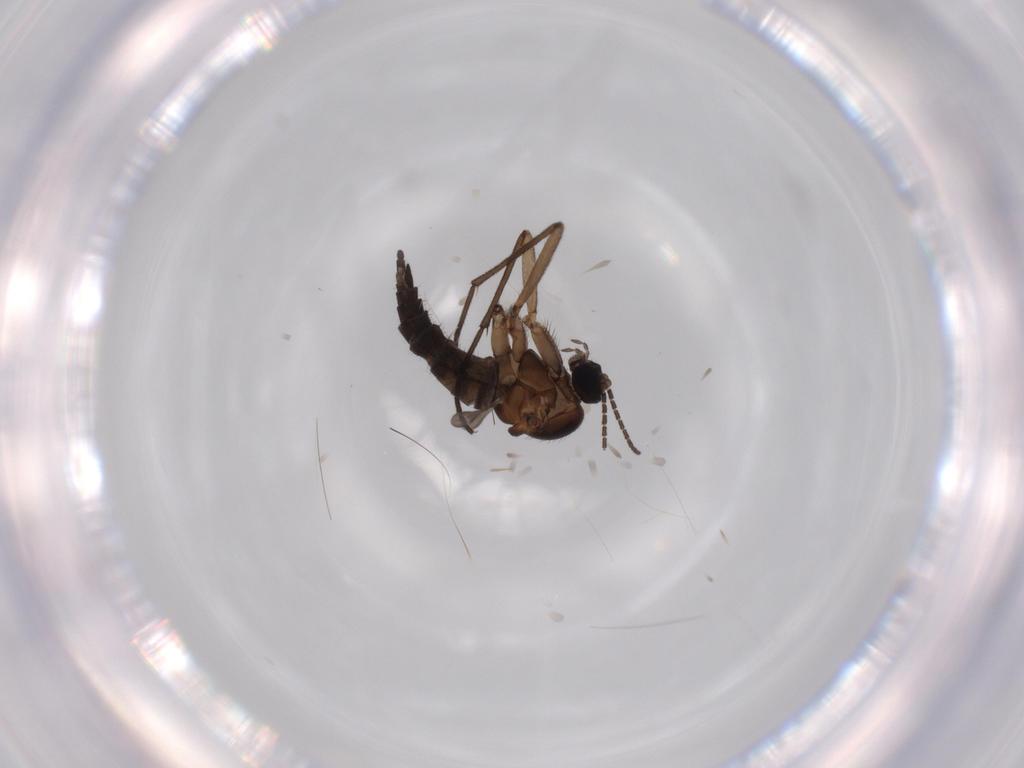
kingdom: Animalia
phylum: Arthropoda
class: Insecta
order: Diptera
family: Sciaridae
